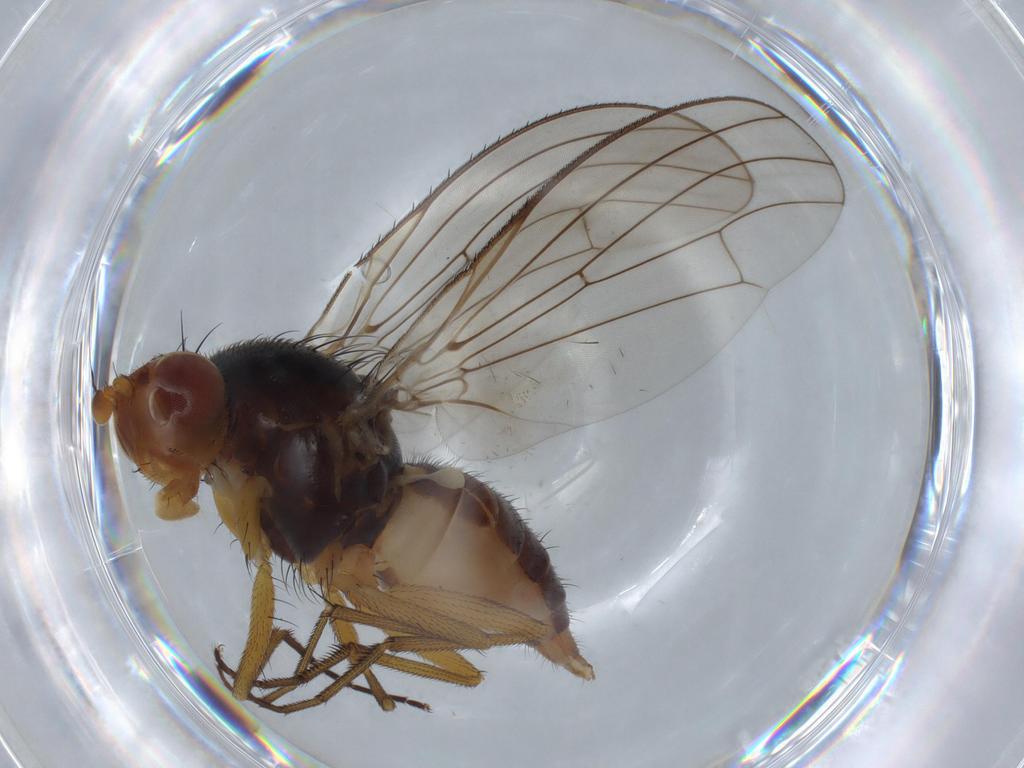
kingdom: Animalia
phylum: Arthropoda
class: Insecta
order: Diptera
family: Heleomyzidae
